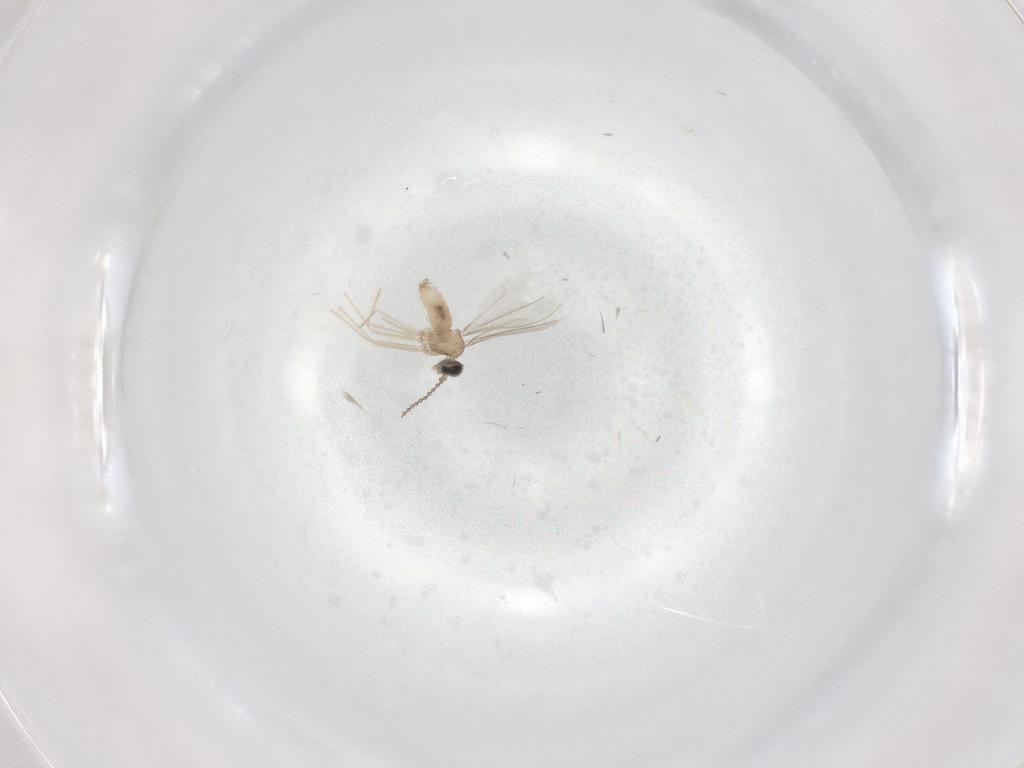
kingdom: Animalia
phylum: Arthropoda
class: Insecta
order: Diptera
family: Cecidomyiidae
